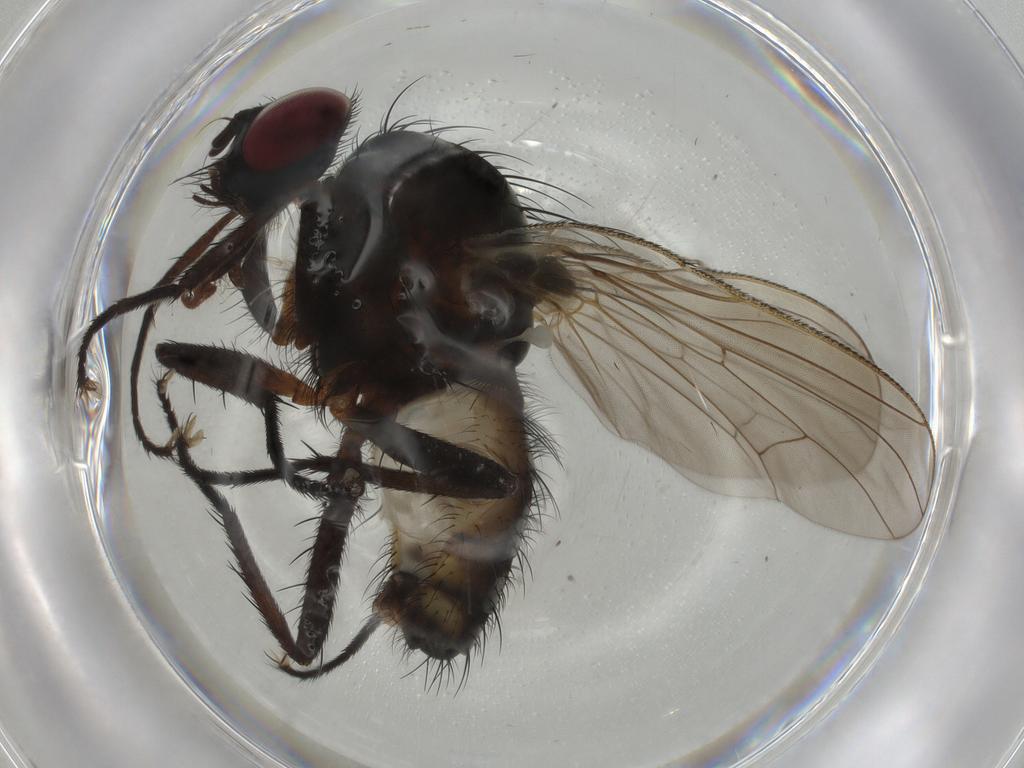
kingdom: Animalia
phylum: Arthropoda
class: Insecta
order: Diptera
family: Anthomyiidae
